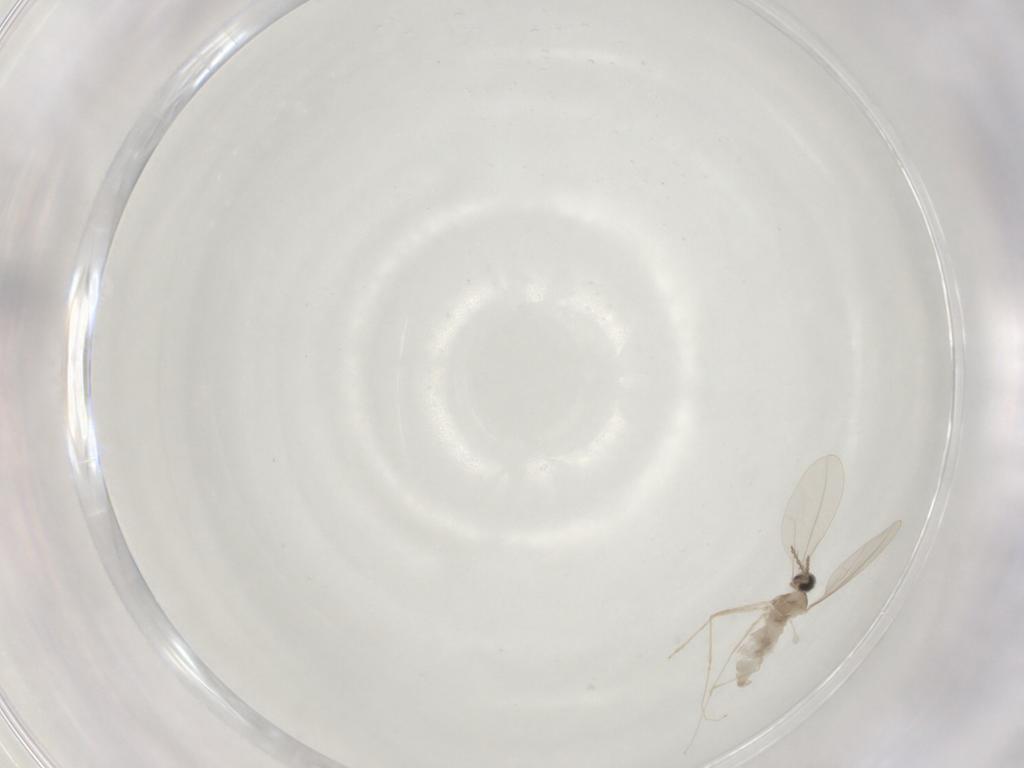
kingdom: Animalia
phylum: Arthropoda
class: Insecta
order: Diptera
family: Cecidomyiidae
